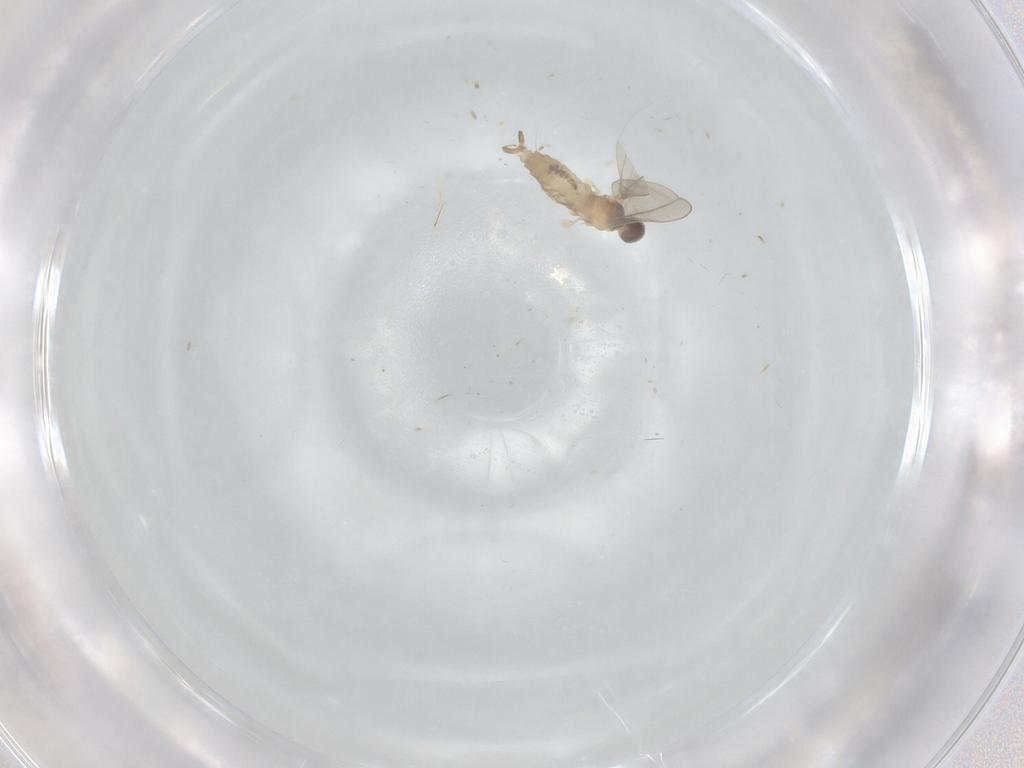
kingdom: Animalia
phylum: Arthropoda
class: Insecta
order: Diptera
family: Cecidomyiidae
